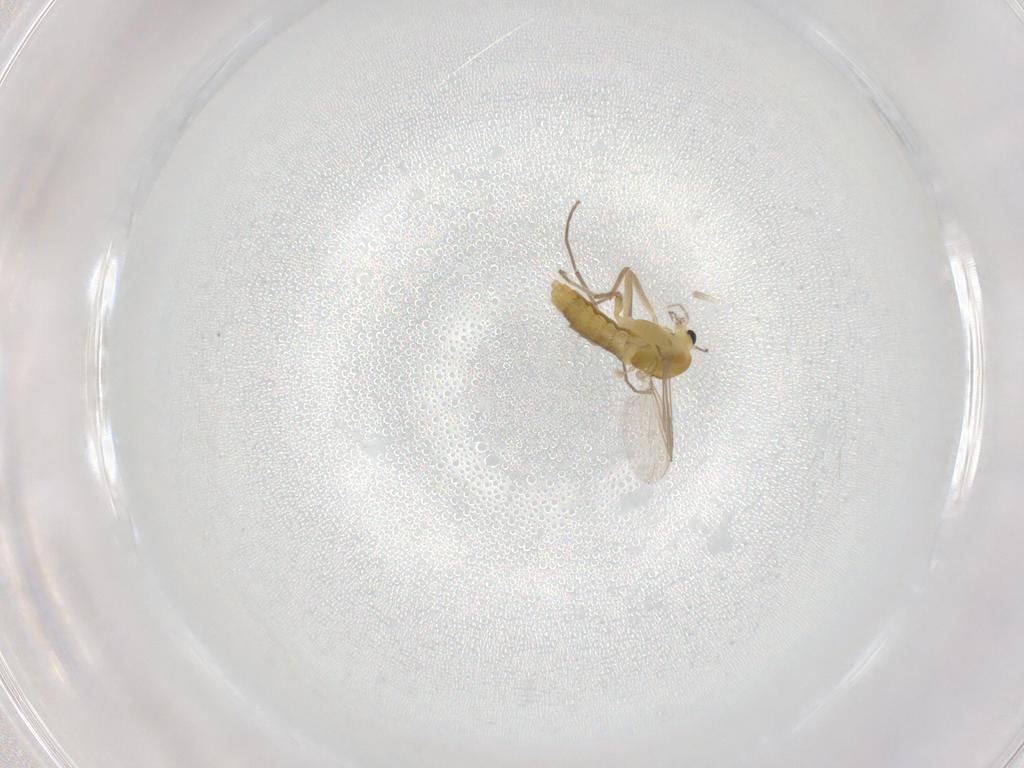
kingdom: Animalia
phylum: Arthropoda
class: Insecta
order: Diptera
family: Chironomidae
